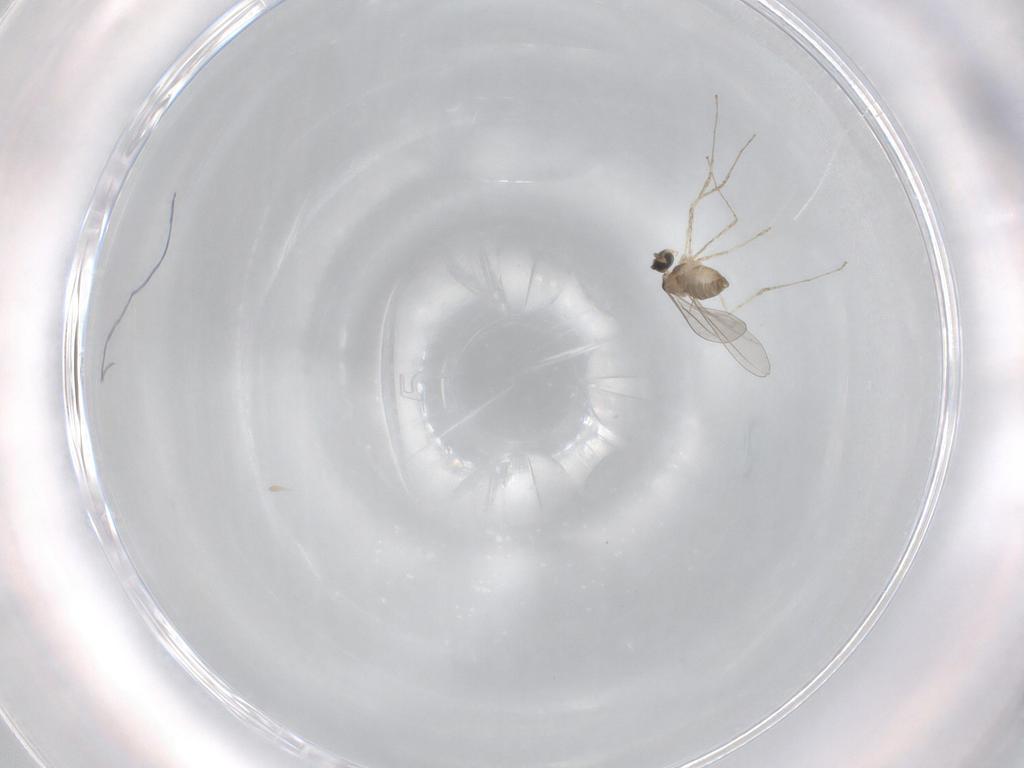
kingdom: Animalia
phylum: Arthropoda
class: Insecta
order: Diptera
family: Cecidomyiidae
